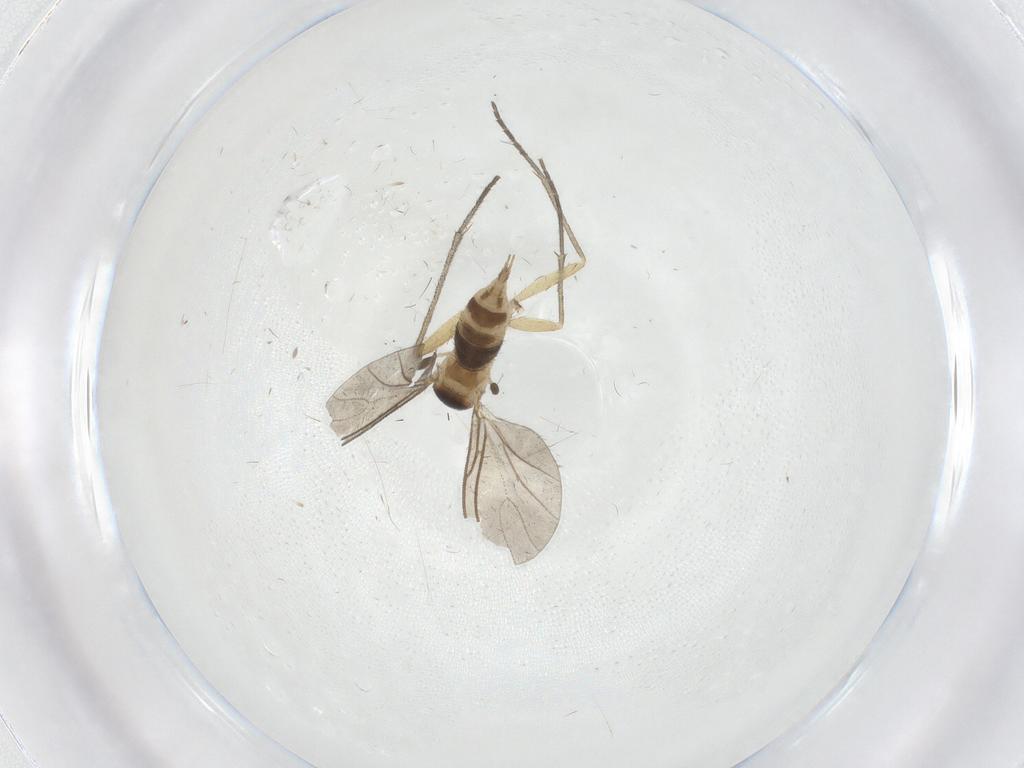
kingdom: Animalia
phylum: Arthropoda
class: Insecta
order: Diptera
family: Sciaridae
